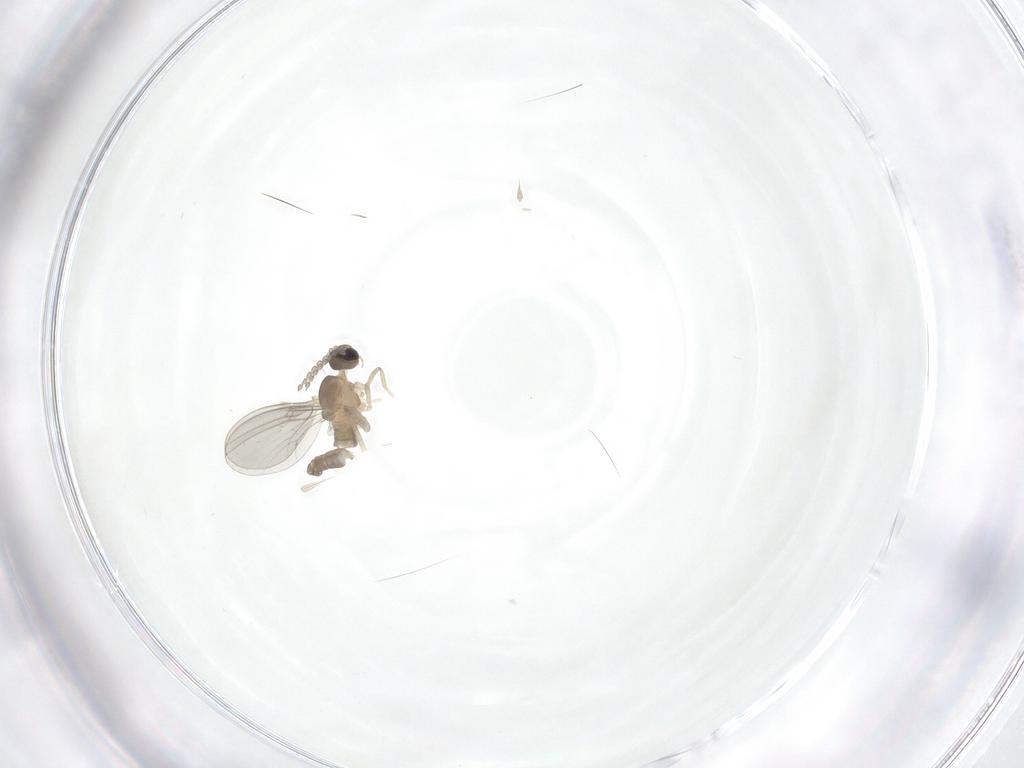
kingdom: Animalia
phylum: Arthropoda
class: Insecta
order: Diptera
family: Cecidomyiidae
